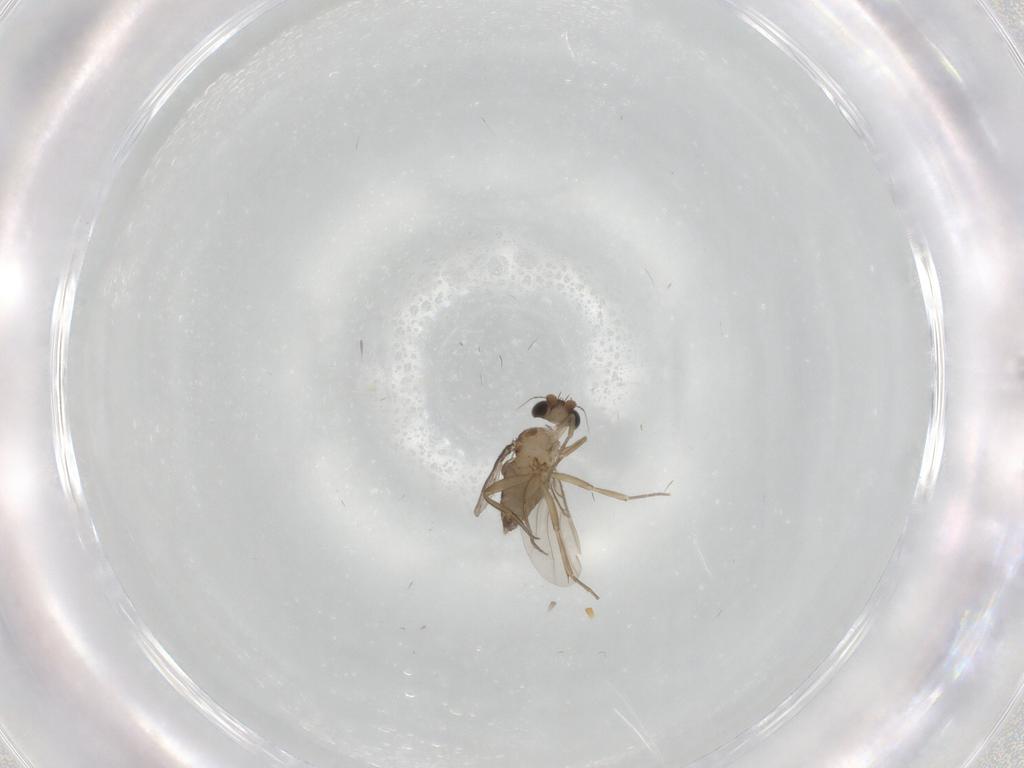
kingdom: Animalia
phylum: Arthropoda
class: Insecta
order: Diptera
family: Phoridae
